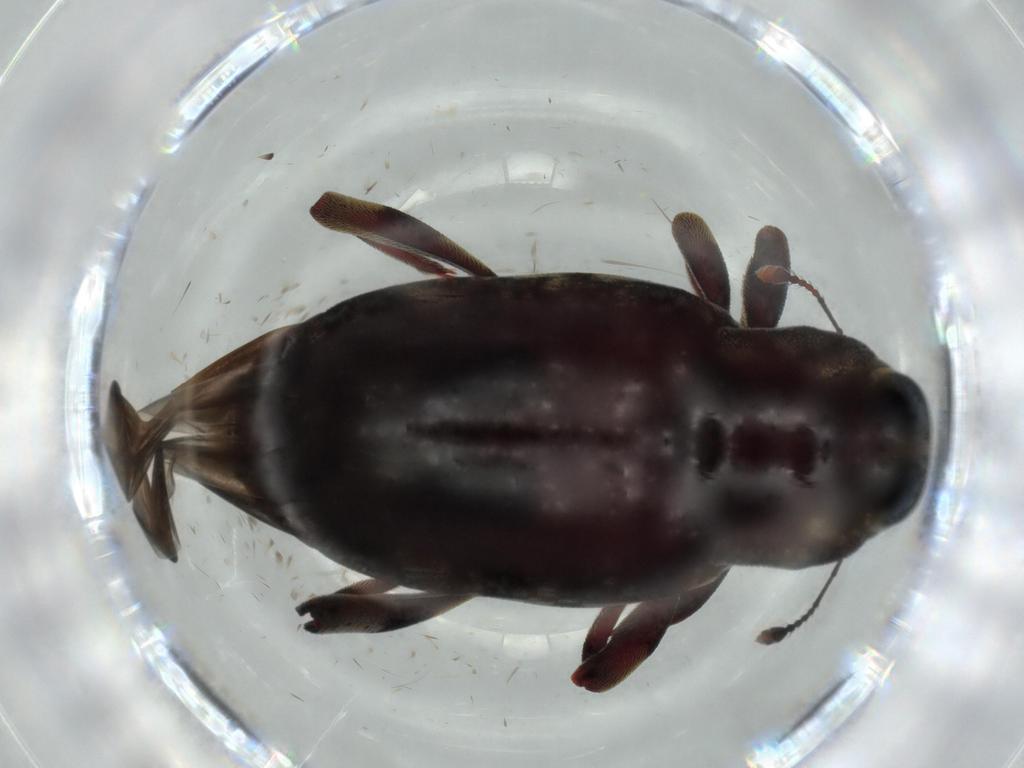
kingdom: Animalia
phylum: Arthropoda
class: Insecta
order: Coleoptera
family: Curculionidae
